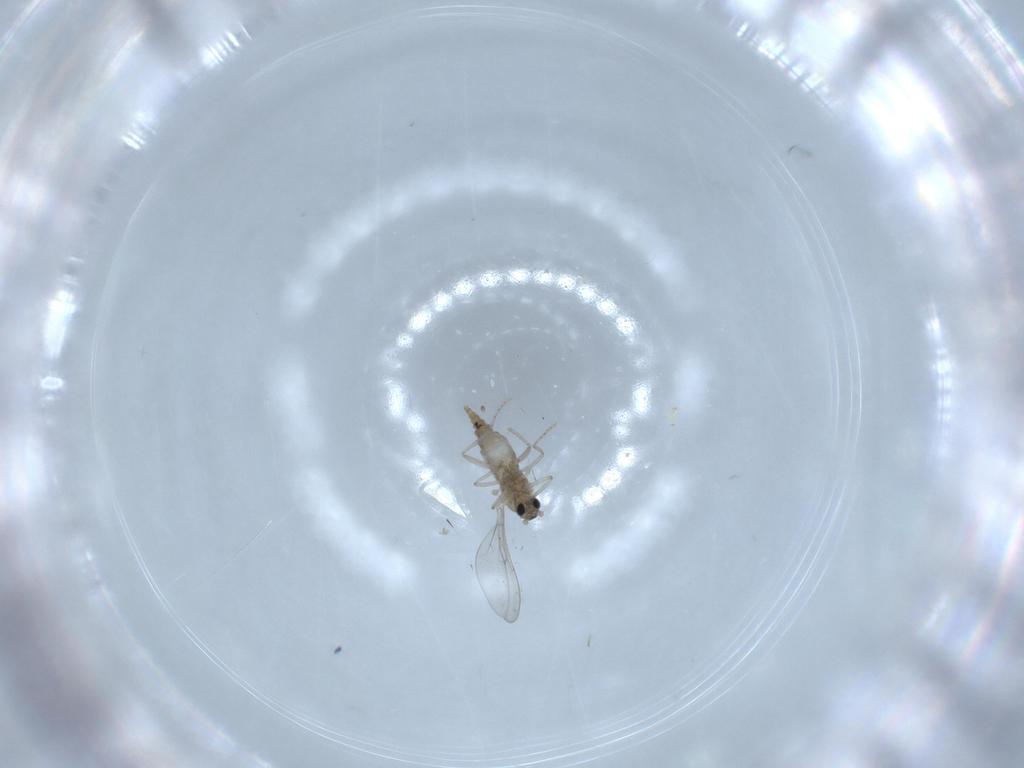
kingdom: Animalia
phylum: Arthropoda
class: Insecta
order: Diptera
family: Cecidomyiidae
